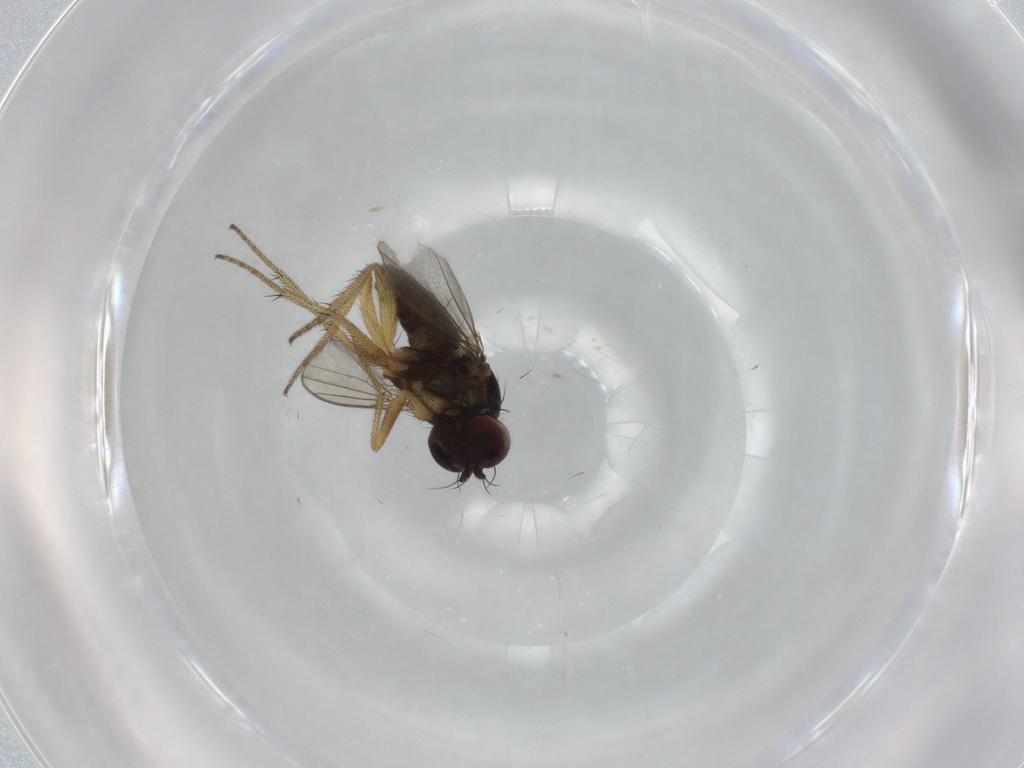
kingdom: Animalia
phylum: Arthropoda
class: Insecta
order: Diptera
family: Dolichopodidae
